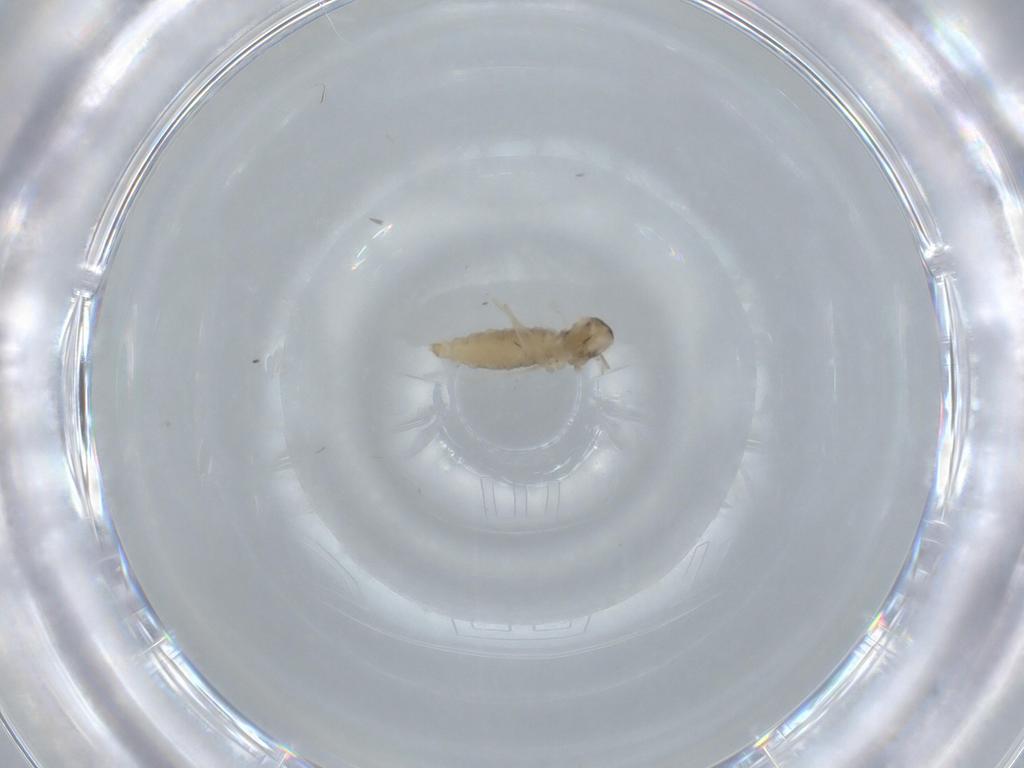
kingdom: Animalia
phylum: Arthropoda
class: Insecta
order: Diptera
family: Cecidomyiidae
